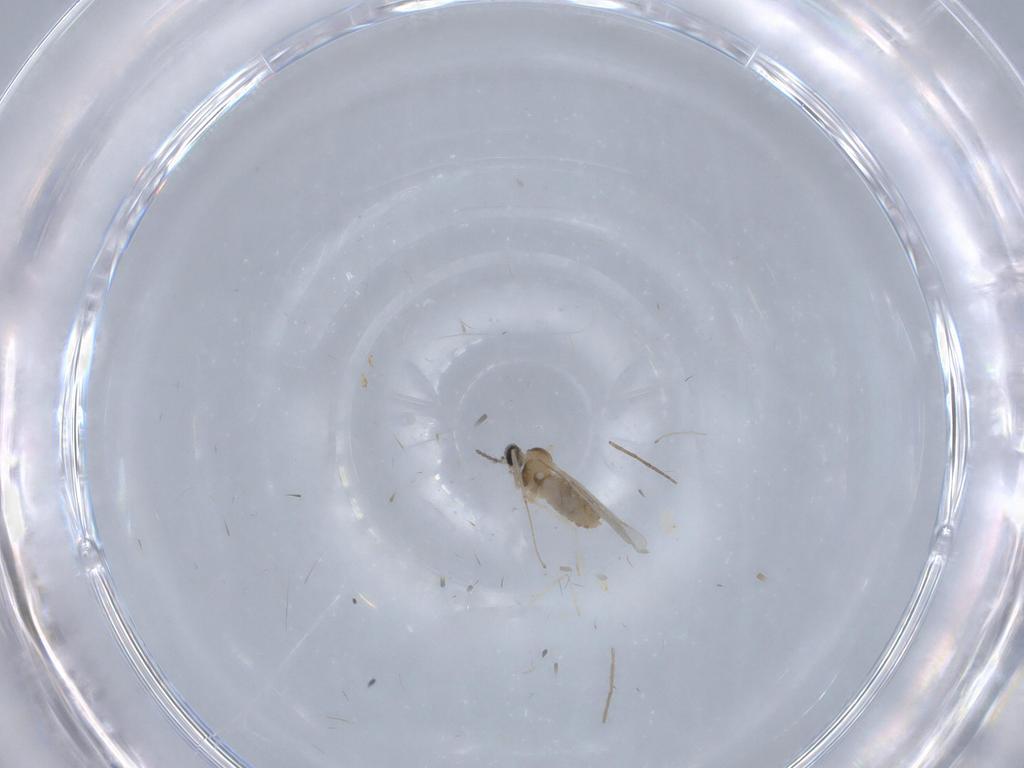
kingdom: Animalia
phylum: Arthropoda
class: Insecta
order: Diptera
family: Chironomidae
